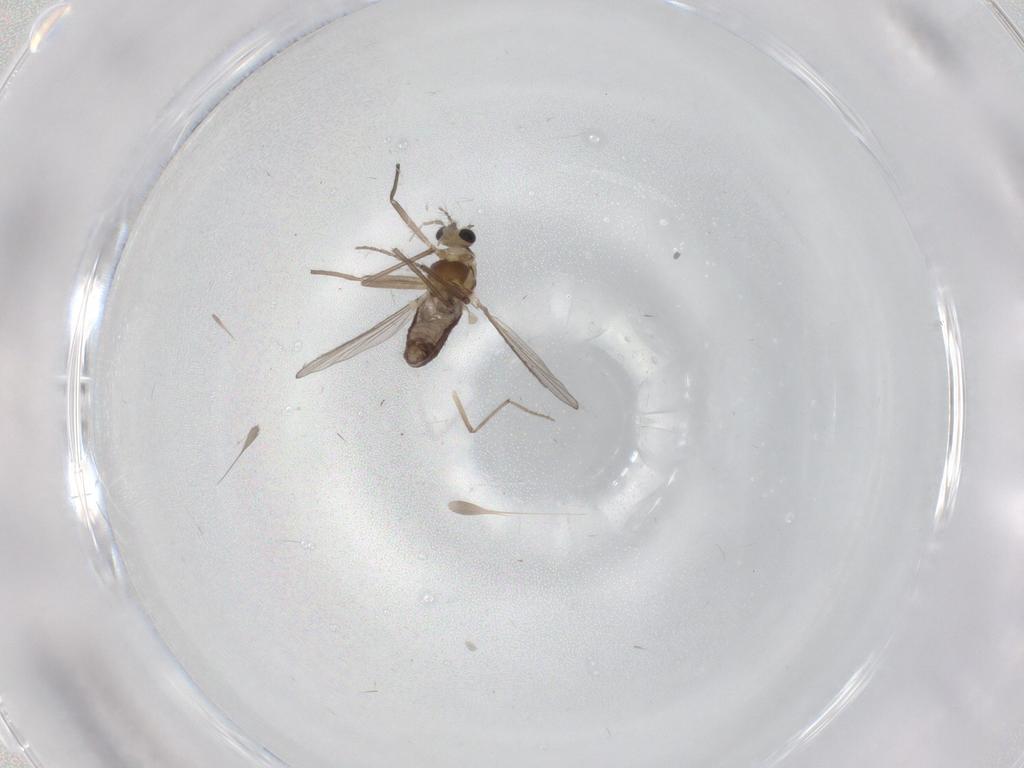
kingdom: Animalia
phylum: Arthropoda
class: Insecta
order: Diptera
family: Chironomidae
